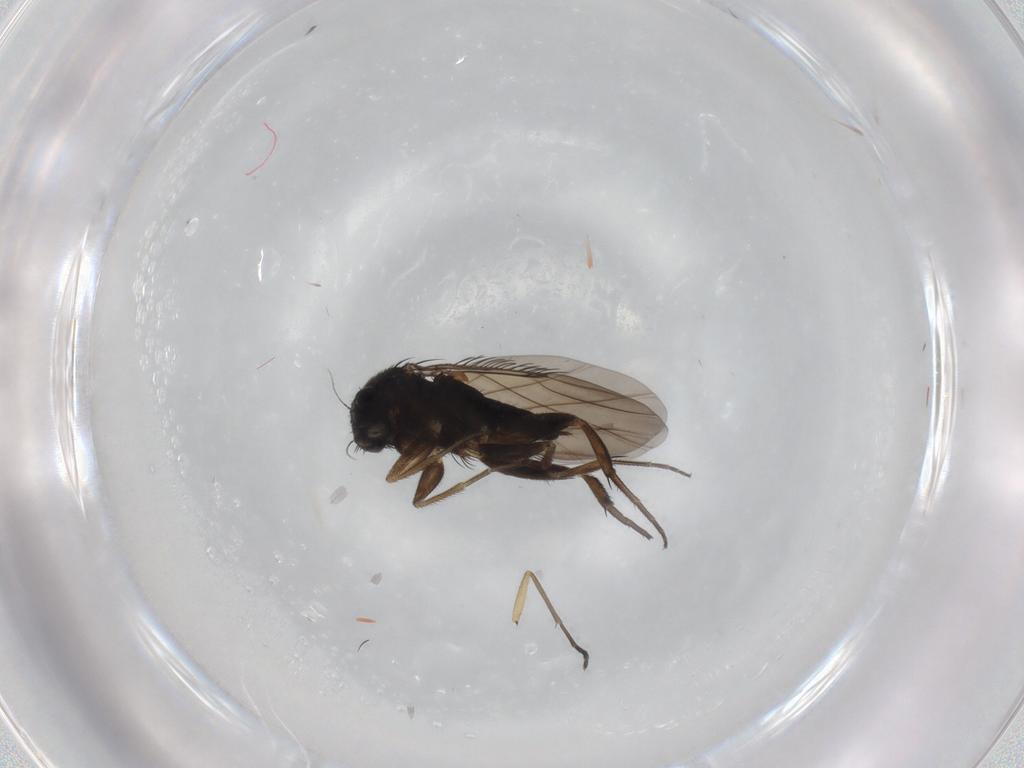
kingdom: Animalia
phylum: Arthropoda
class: Insecta
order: Diptera
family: Phoridae
